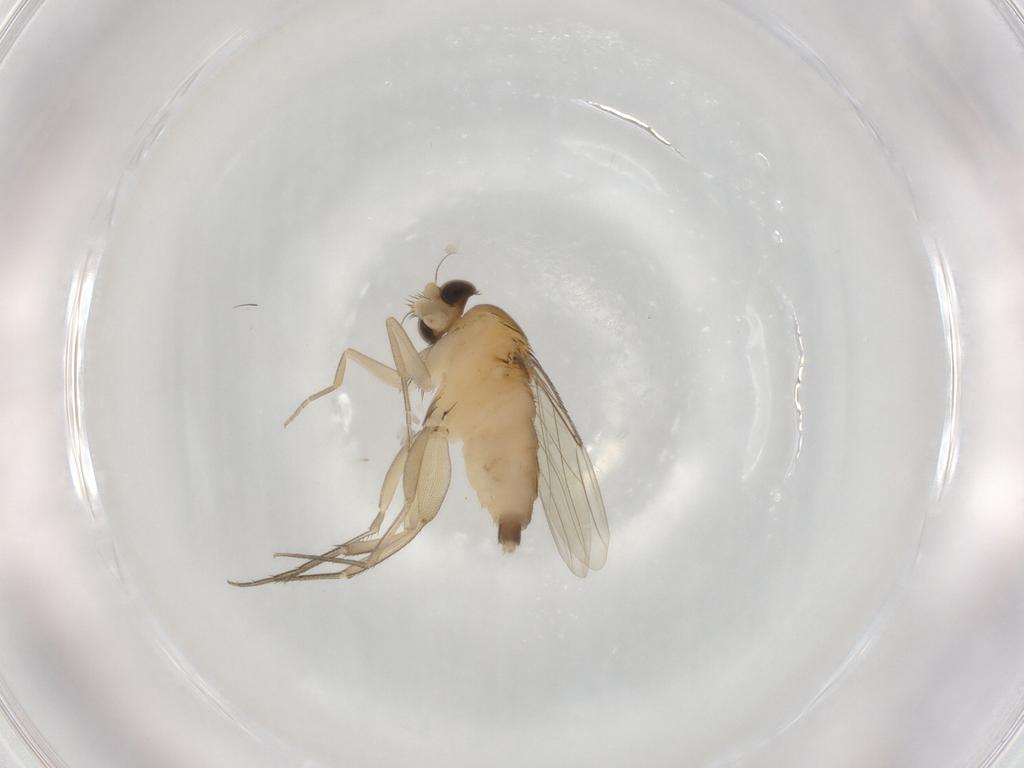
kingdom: Animalia
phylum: Arthropoda
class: Insecta
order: Diptera
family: Phoridae
